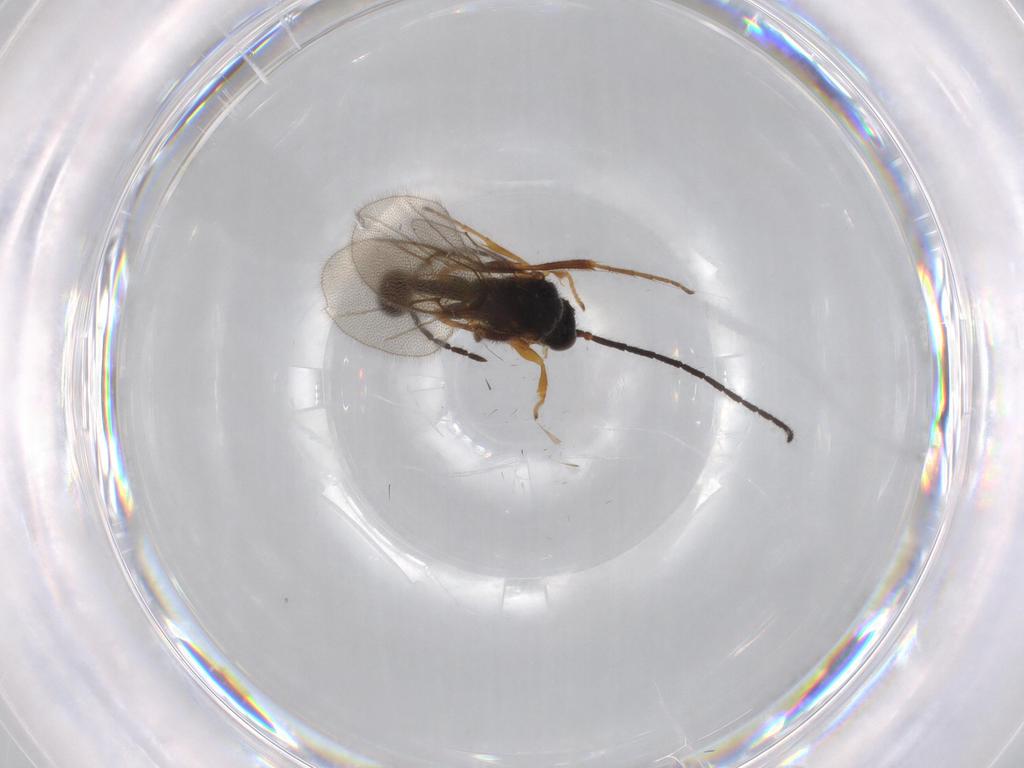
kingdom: Animalia
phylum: Arthropoda
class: Insecta
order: Hymenoptera
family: Diapriidae
